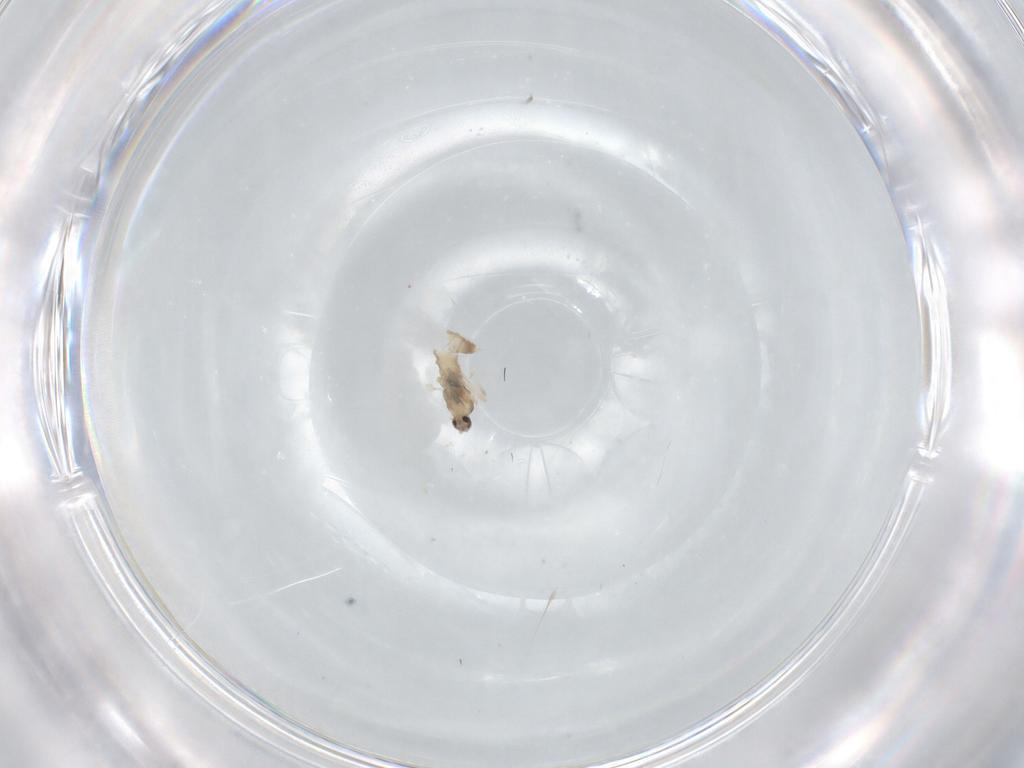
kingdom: Animalia
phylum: Arthropoda
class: Insecta
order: Diptera
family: Cecidomyiidae
